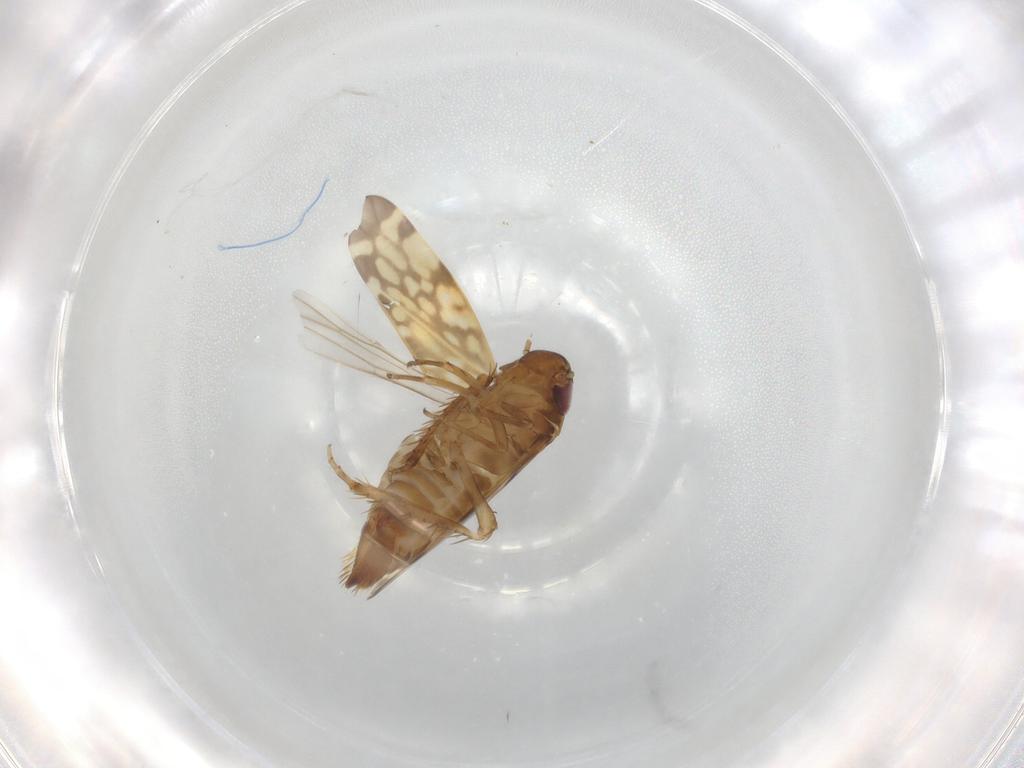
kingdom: Animalia
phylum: Arthropoda
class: Insecta
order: Hemiptera
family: Cicadellidae
